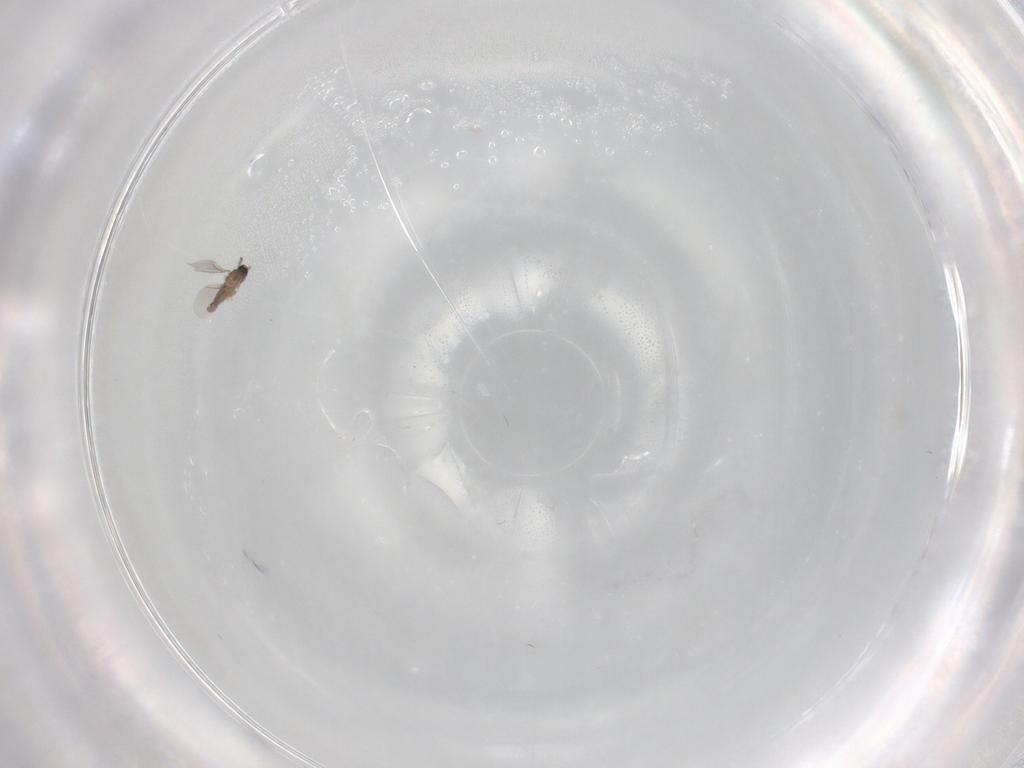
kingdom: Animalia
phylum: Arthropoda
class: Insecta
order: Diptera
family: Cecidomyiidae
